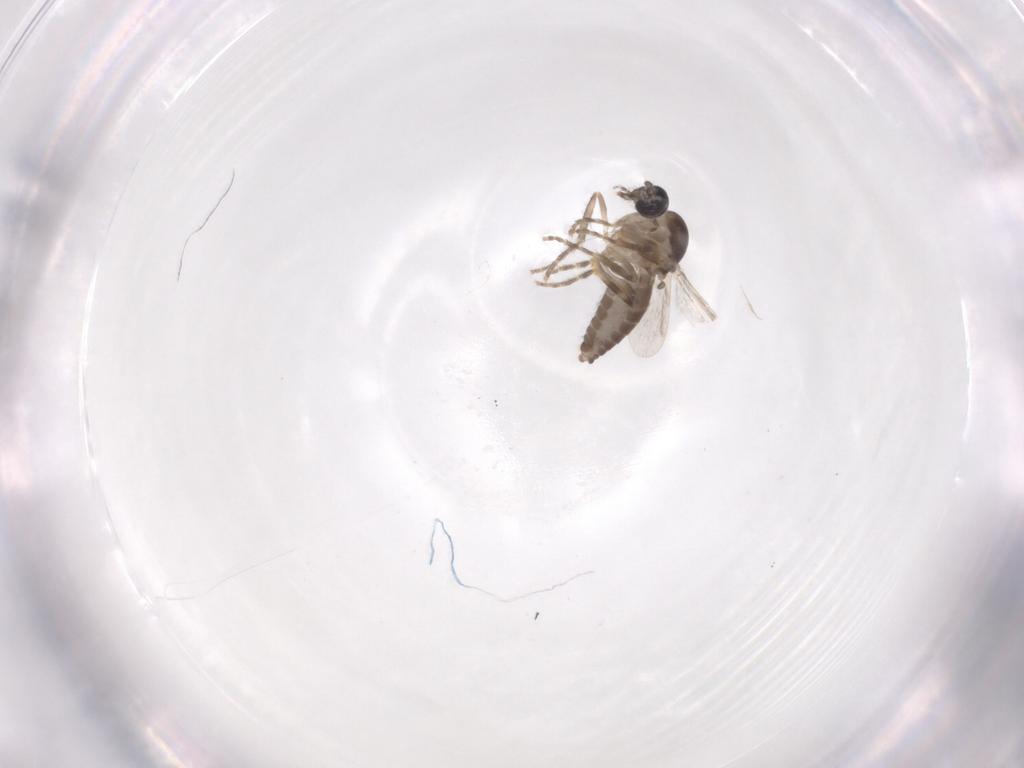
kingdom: Animalia
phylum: Arthropoda
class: Insecta
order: Diptera
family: Ceratopogonidae
